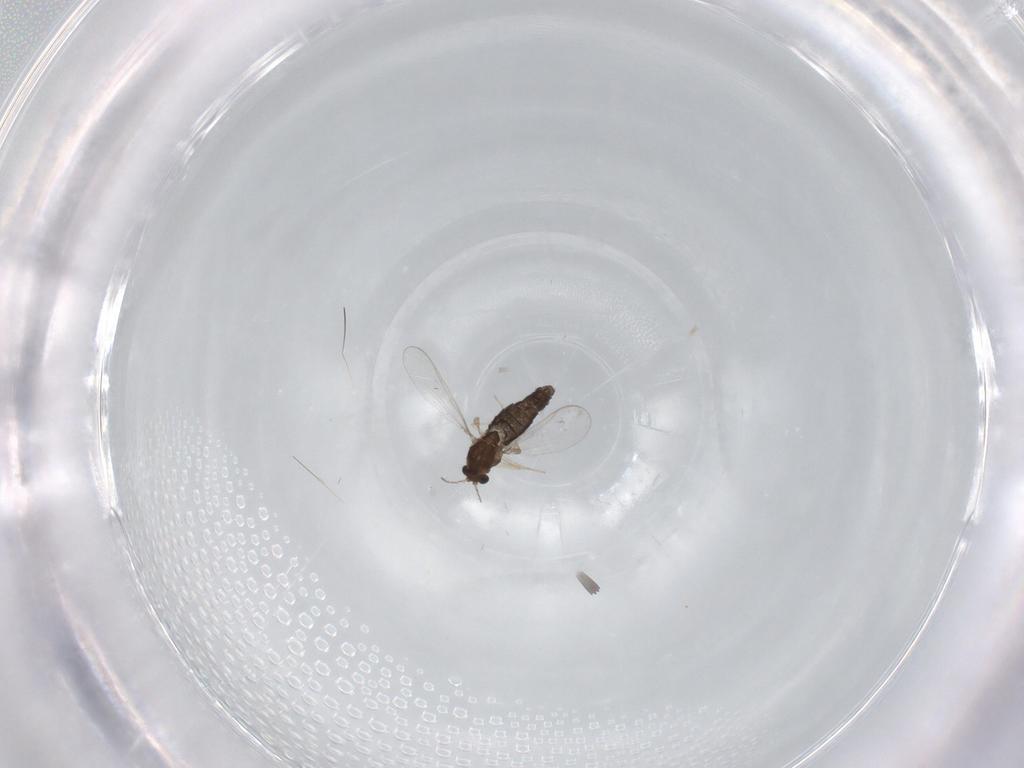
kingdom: Animalia
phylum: Arthropoda
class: Insecta
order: Diptera
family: Chironomidae
